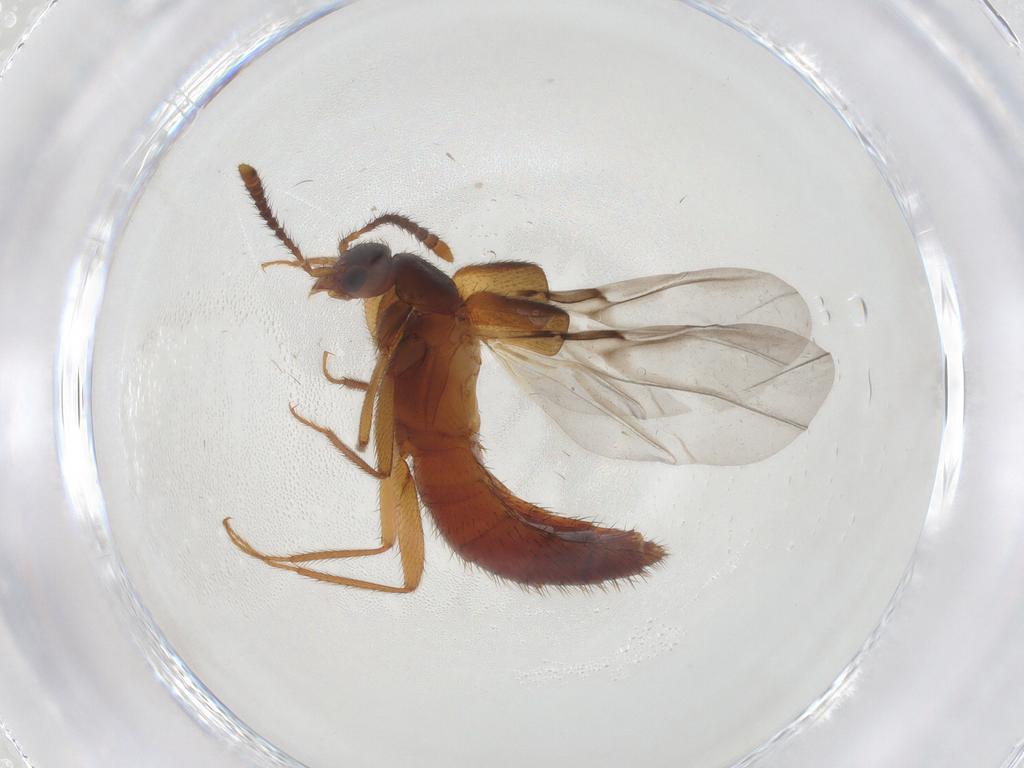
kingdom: Animalia
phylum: Arthropoda
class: Insecta
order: Coleoptera
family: Staphylinidae
